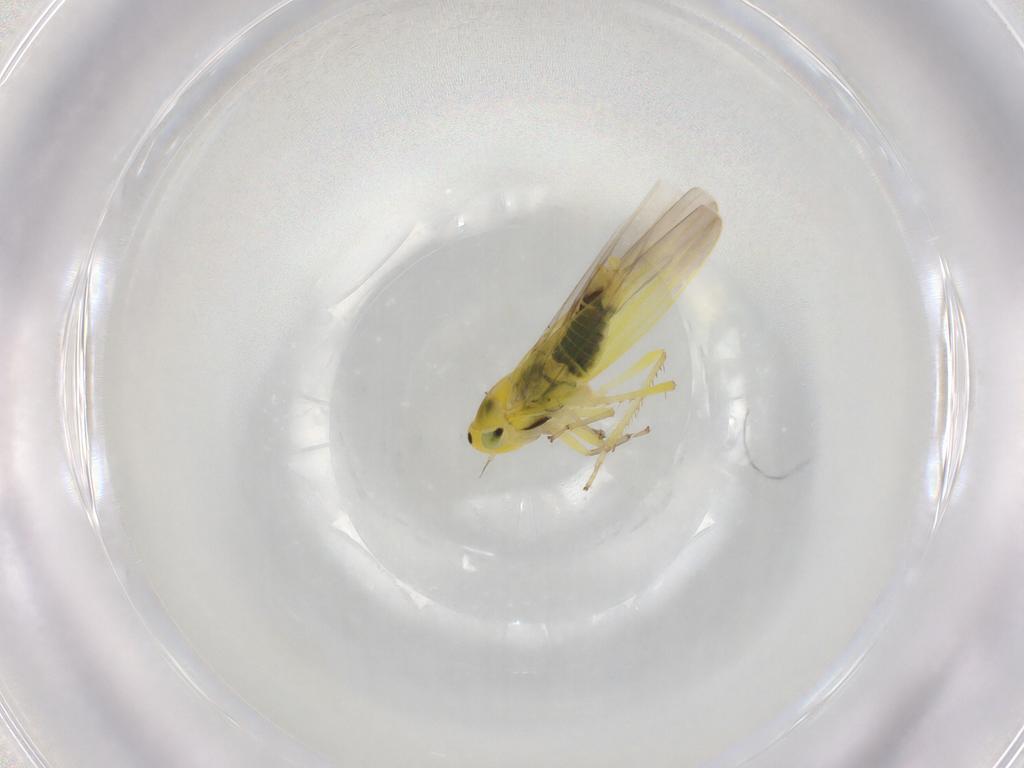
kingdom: Animalia
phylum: Arthropoda
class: Insecta
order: Hemiptera
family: Cicadellidae
